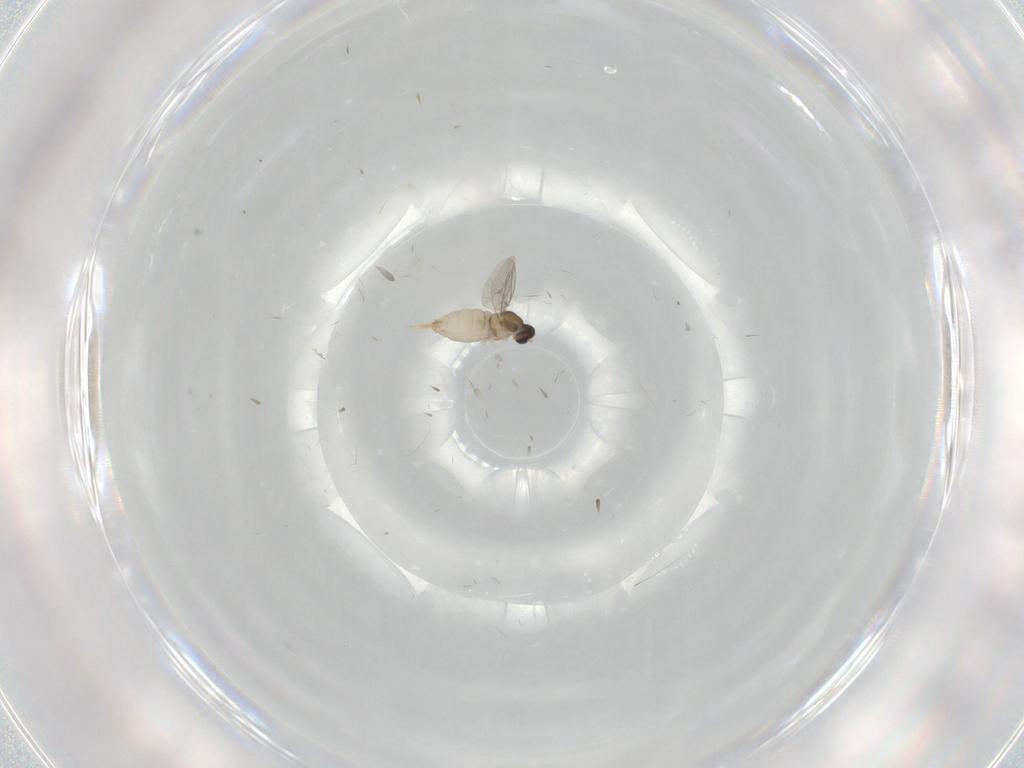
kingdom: Animalia
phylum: Arthropoda
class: Insecta
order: Diptera
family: Cecidomyiidae
